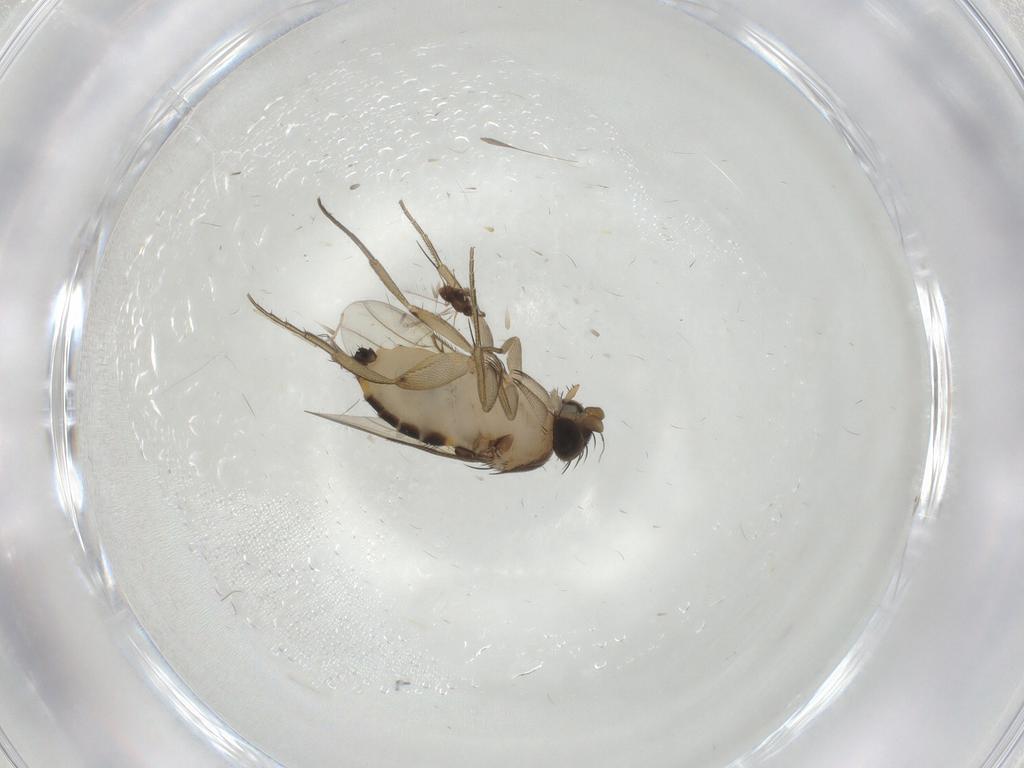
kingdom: Animalia
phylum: Arthropoda
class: Insecta
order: Diptera
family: Phoridae
